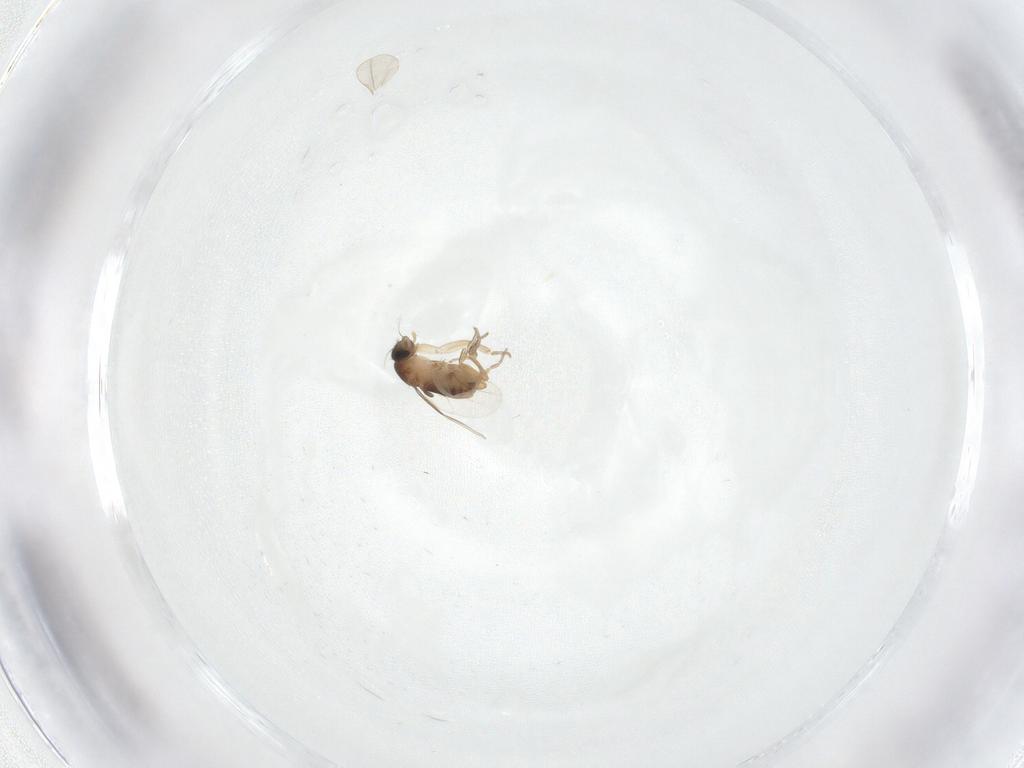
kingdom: Animalia
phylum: Arthropoda
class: Insecta
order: Diptera
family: Phoridae
